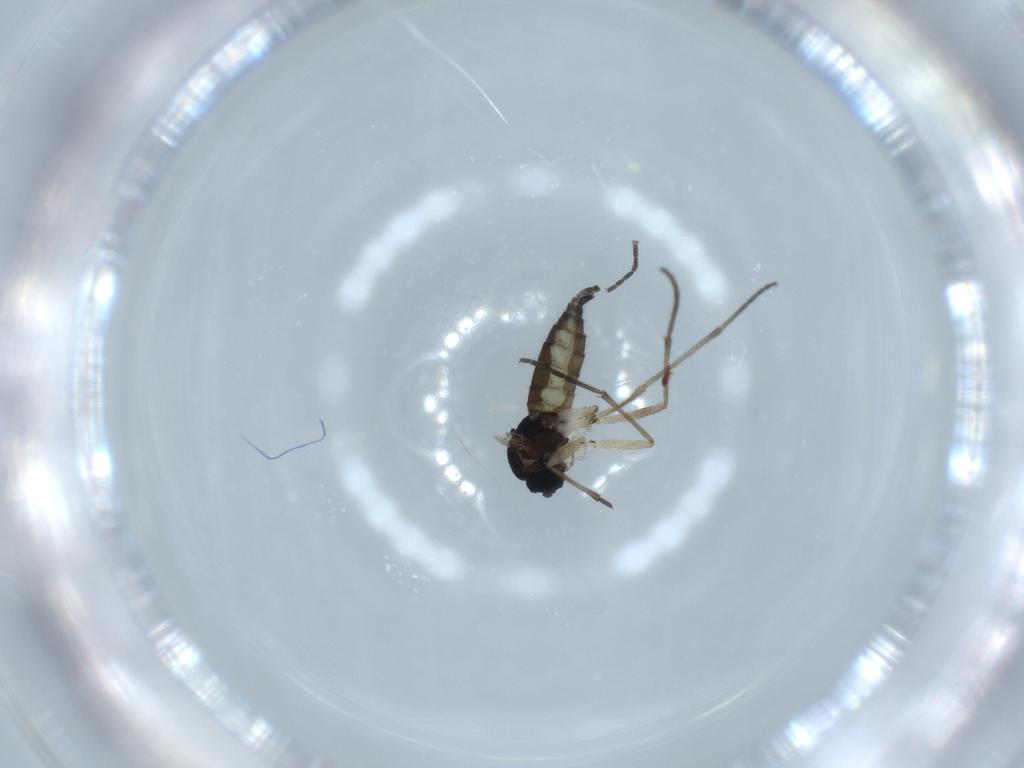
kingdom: Animalia
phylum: Arthropoda
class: Insecta
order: Diptera
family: Sciaridae
